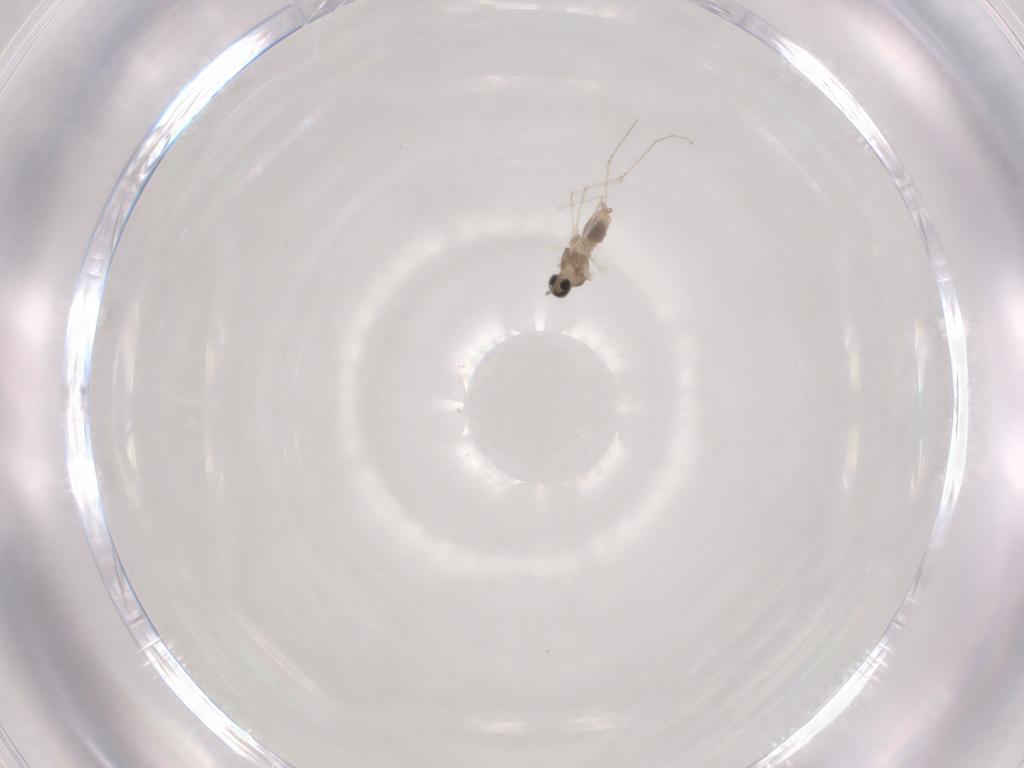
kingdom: Animalia
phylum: Arthropoda
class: Insecta
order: Diptera
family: Cecidomyiidae
